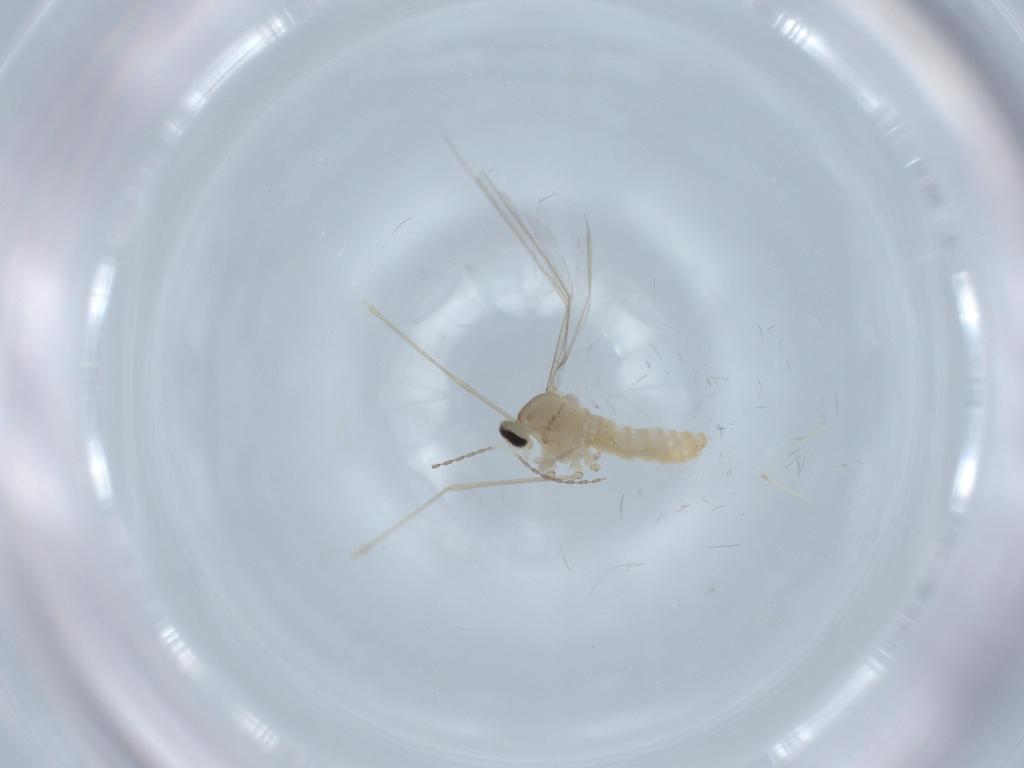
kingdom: Animalia
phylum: Arthropoda
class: Insecta
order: Diptera
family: Cecidomyiidae
